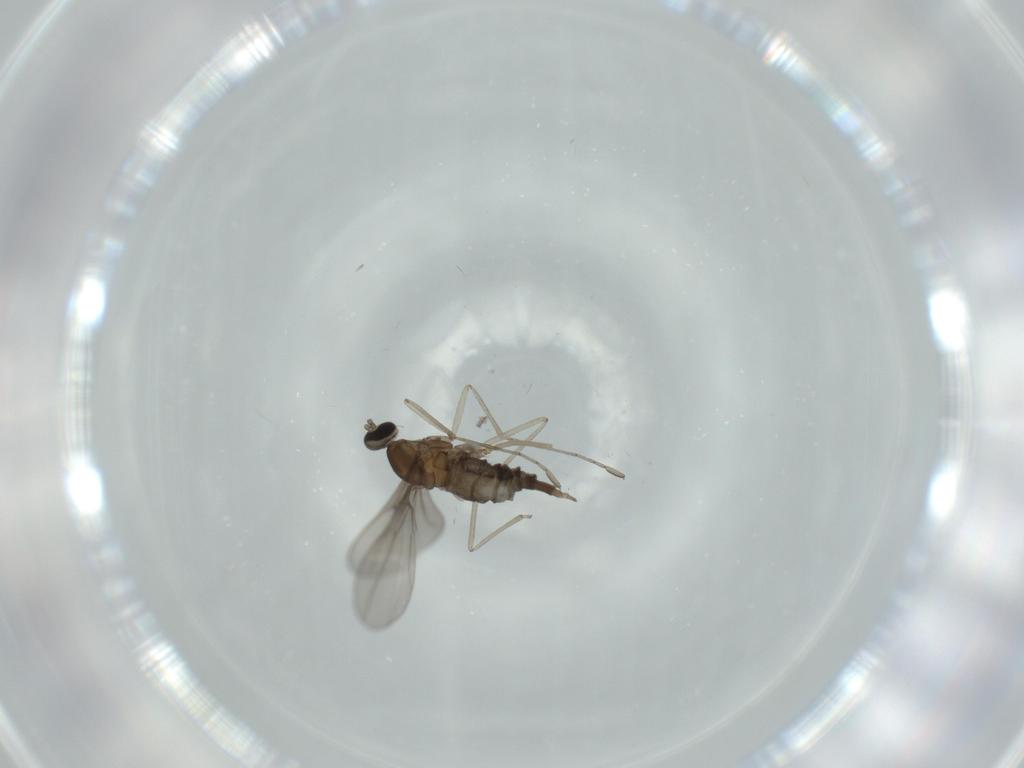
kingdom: Animalia
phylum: Arthropoda
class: Insecta
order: Diptera
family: Cecidomyiidae
